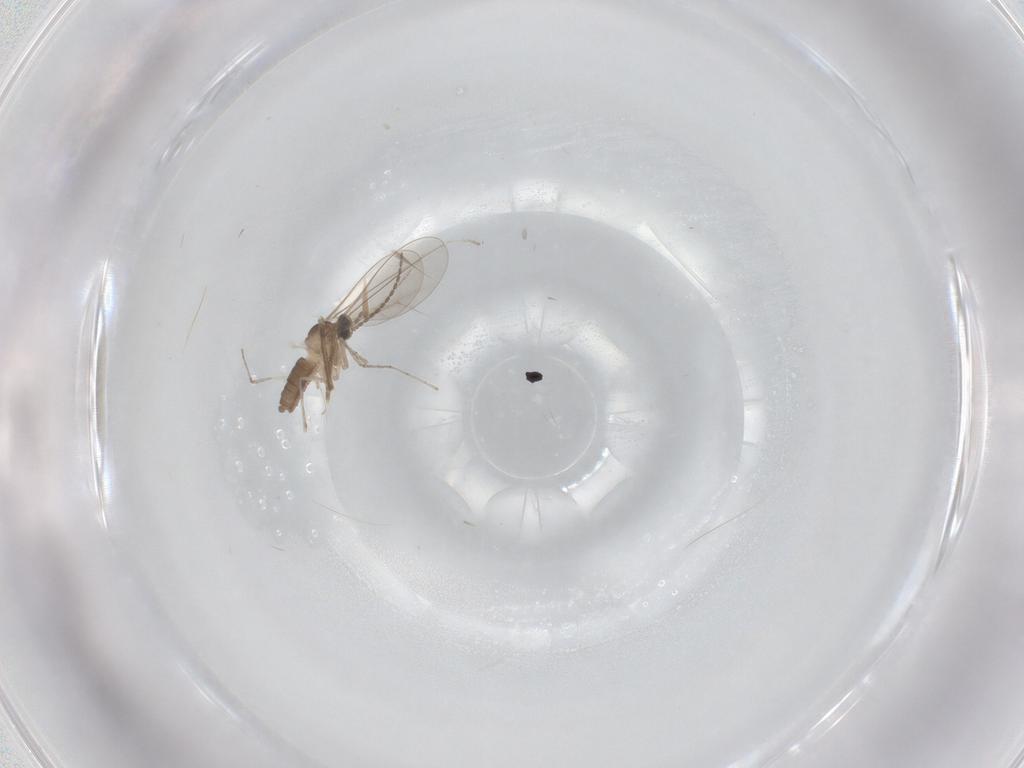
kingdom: Animalia
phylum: Arthropoda
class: Insecta
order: Diptera
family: Cecidomyiidae
